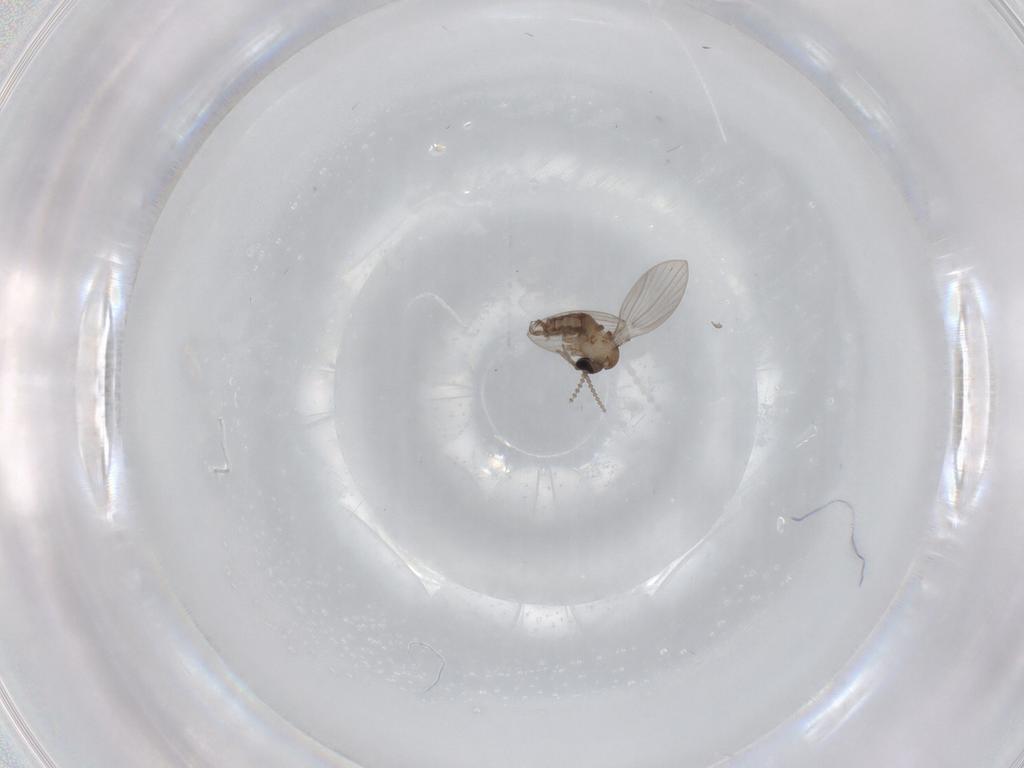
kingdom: Animalia
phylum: Arthropoda
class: Insecta
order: Diptera
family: Psychodidae
